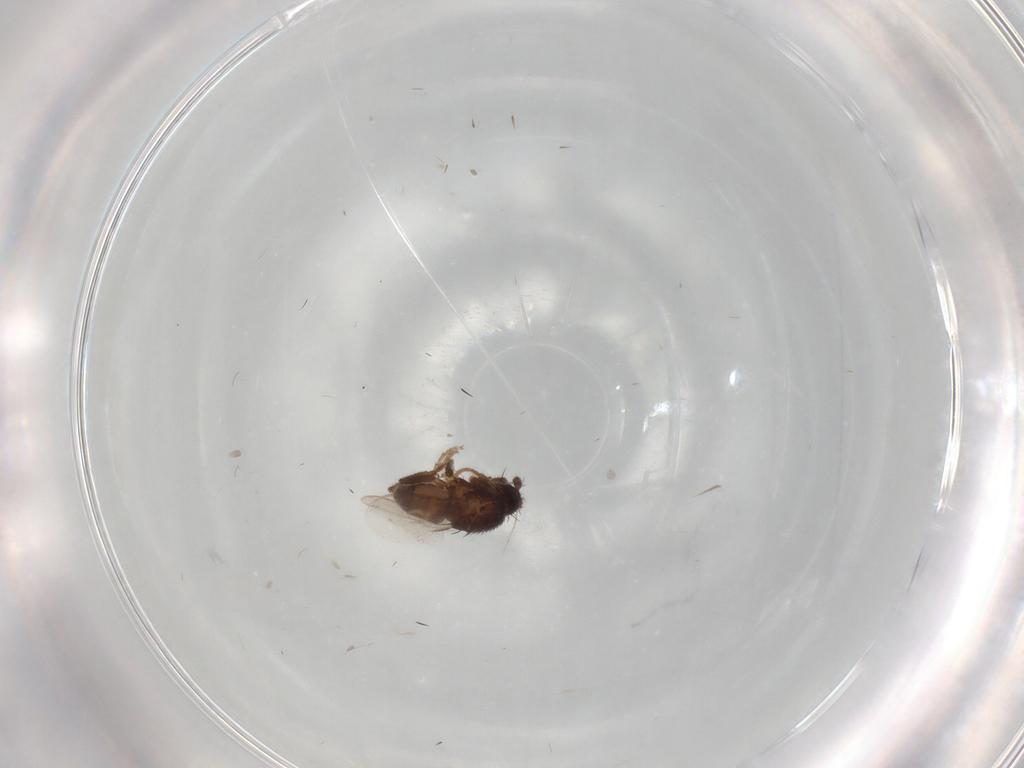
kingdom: Animalia
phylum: Arthropoda
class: Insecta
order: Diptera
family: Sphaeroceridae
